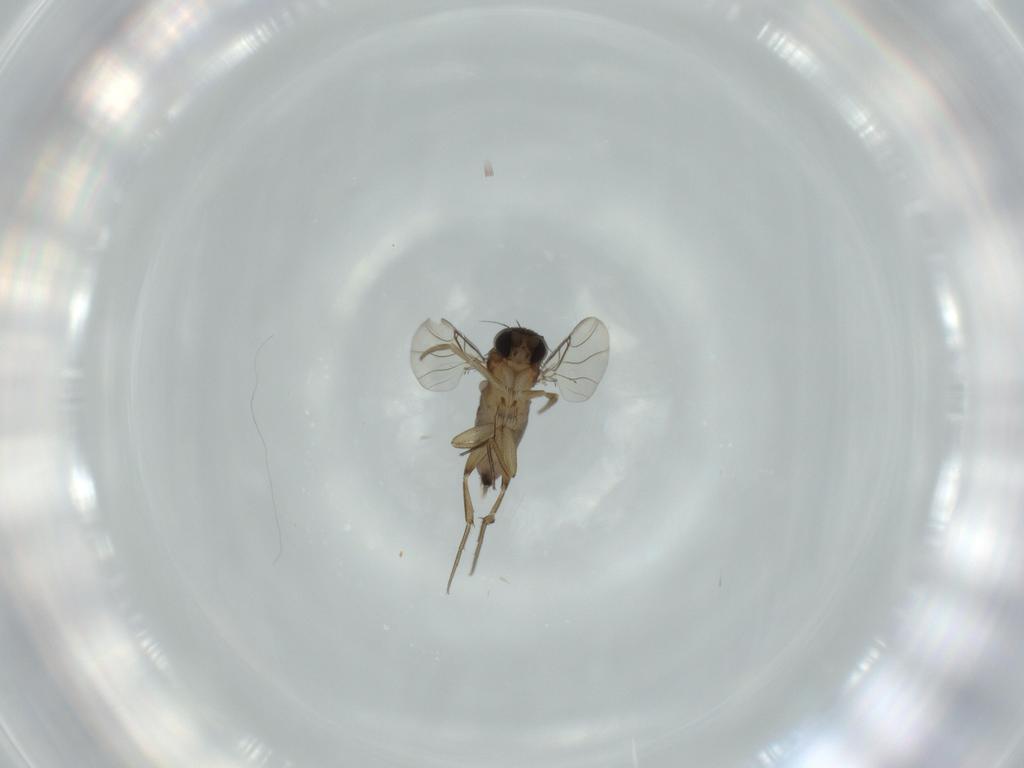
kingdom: Animalia
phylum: Arthropoda
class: Insecta
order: Diptera
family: Phoridae
